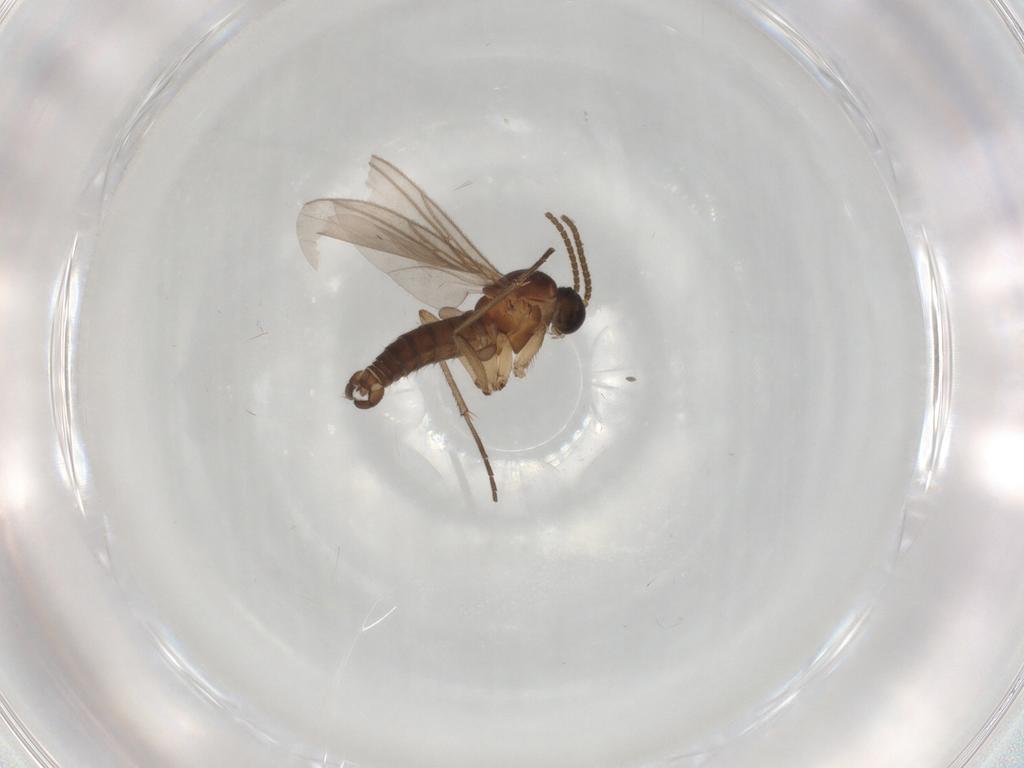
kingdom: Animalia
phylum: Arthropoda
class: Insecta
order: Diptera
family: Sciaridae
